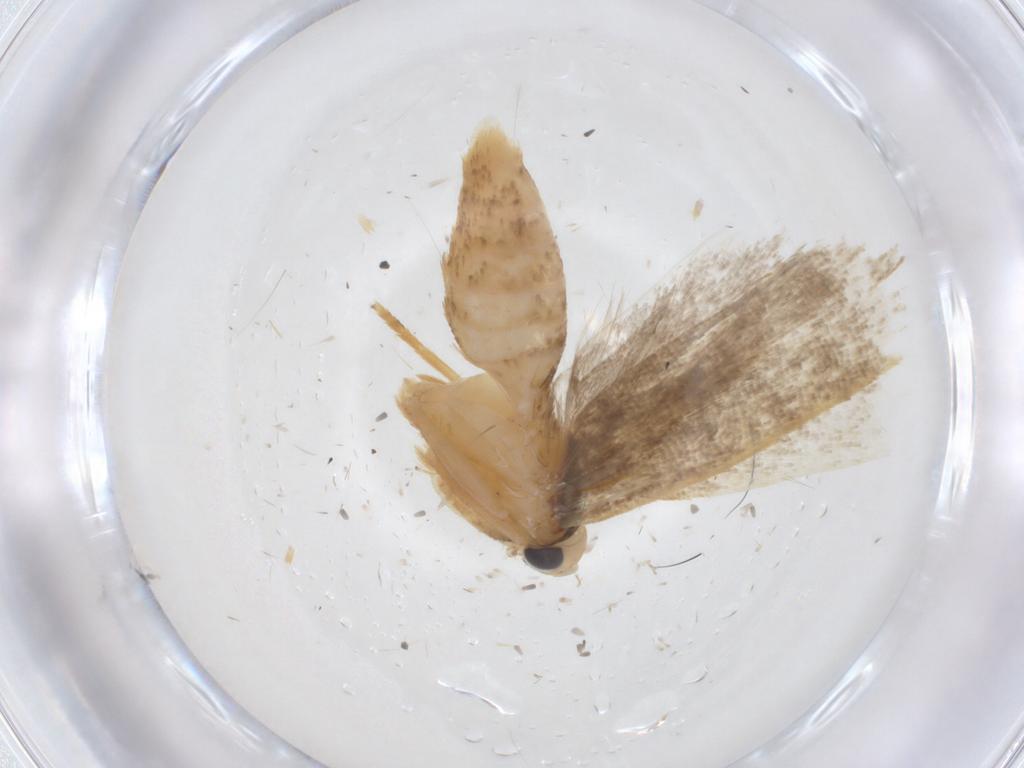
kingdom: Animalia
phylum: Arthropoda
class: Insecta
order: Lepidoptera
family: Gelechiidae
